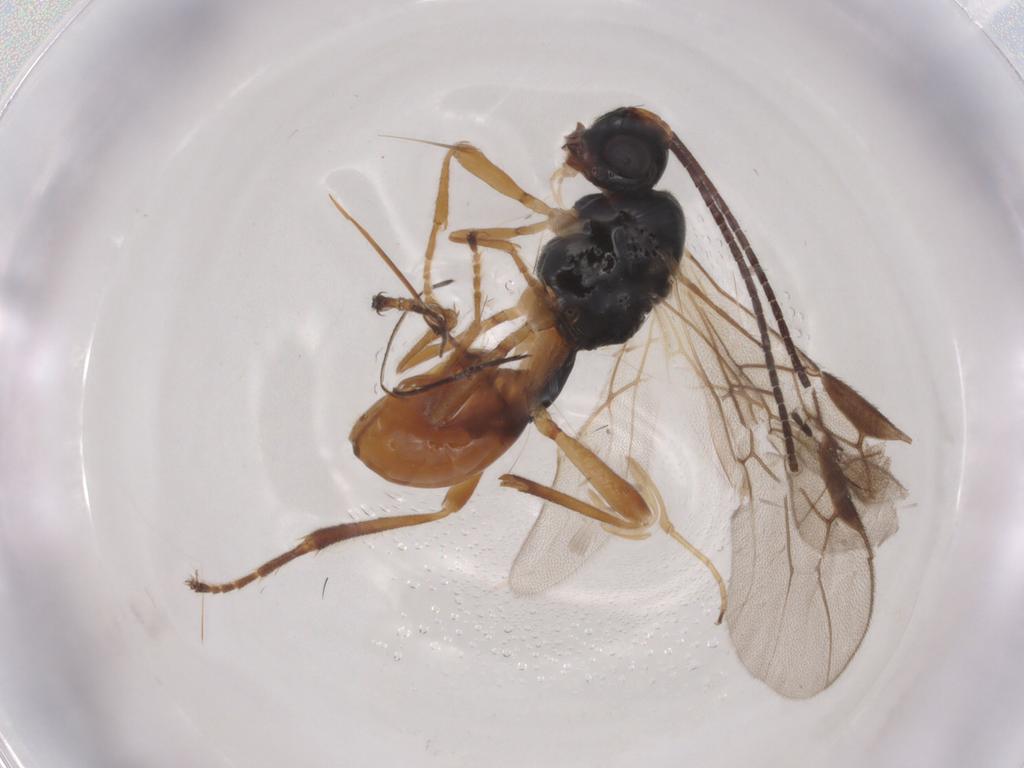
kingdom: Animalia
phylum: Arthropoda
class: Insecta
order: Hymenoptera
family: Braconidae
